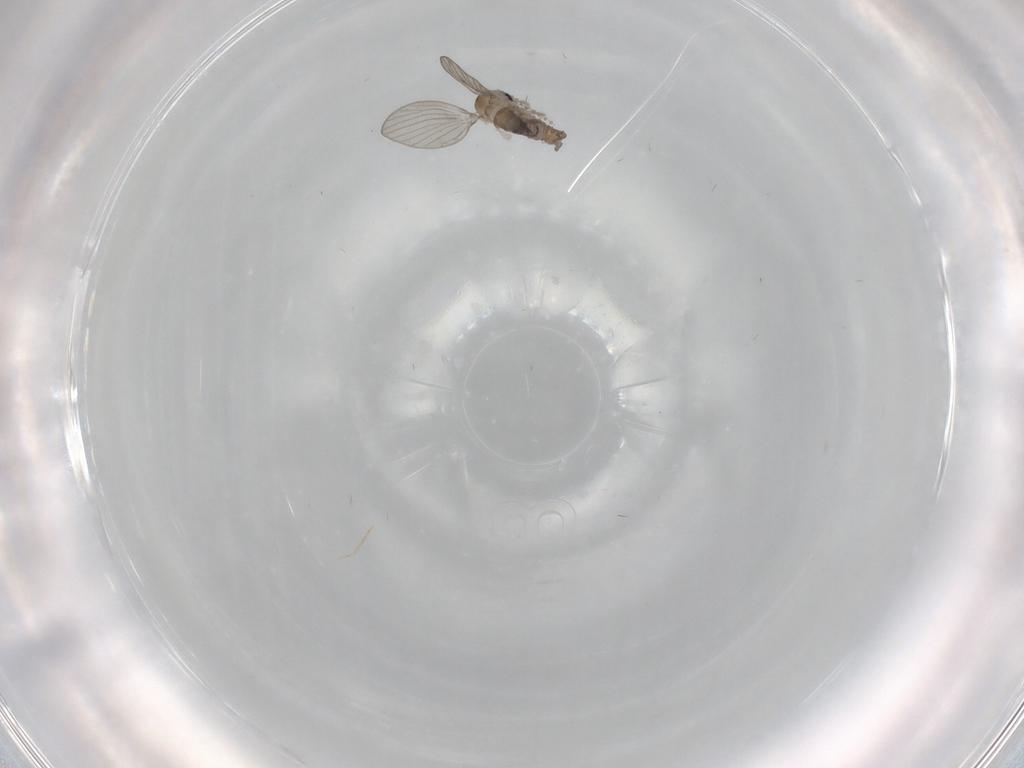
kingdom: Animalia
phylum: Arthropoda
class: Insecta
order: Diptera
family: Psychodidae
